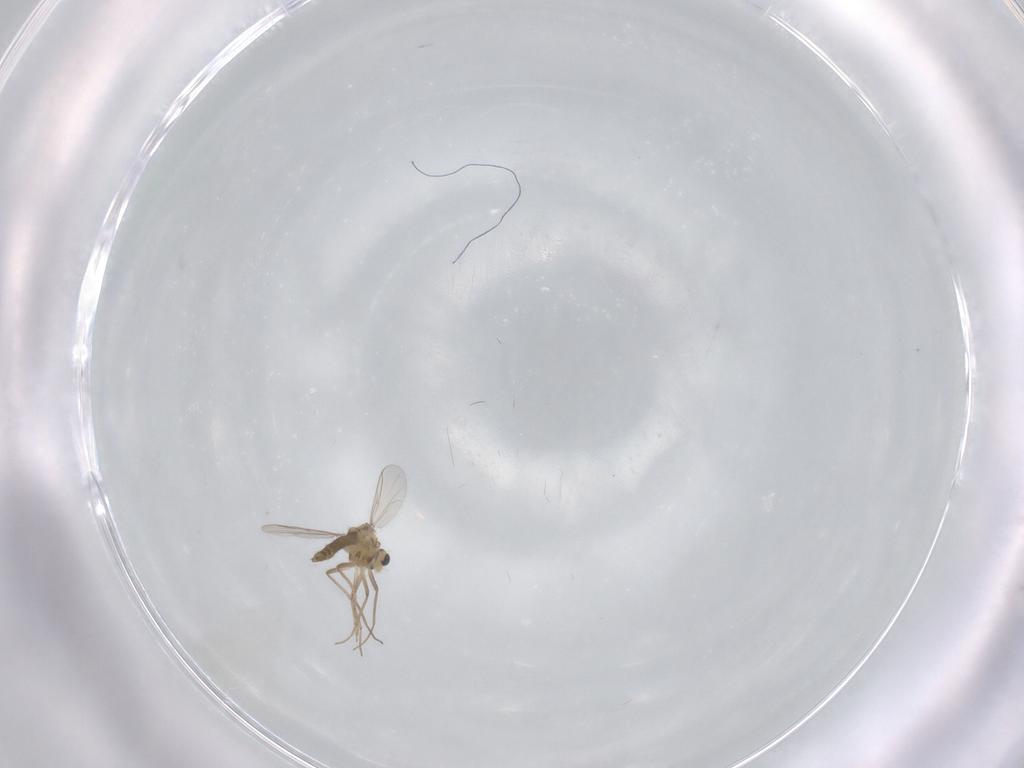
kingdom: Animalia
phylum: Arthropoda
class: Insecta
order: Diptera
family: Chironomidae
